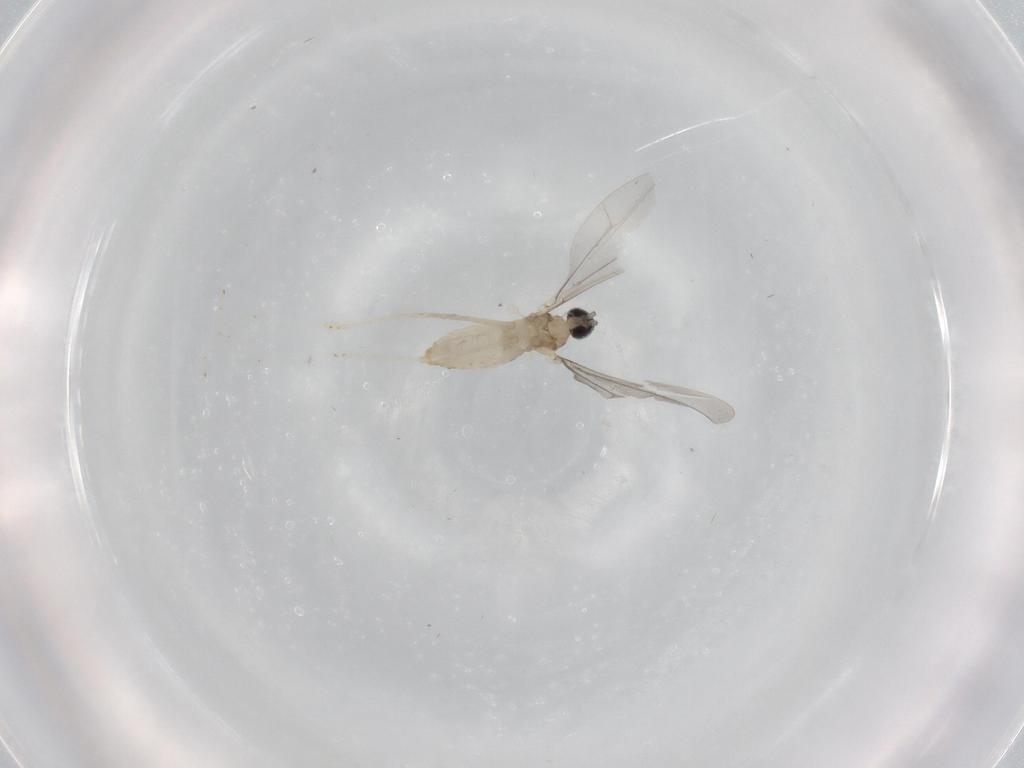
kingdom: Animalia
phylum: Arthropoda
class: Insecta
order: Diptera
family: Cecidomyiidae
